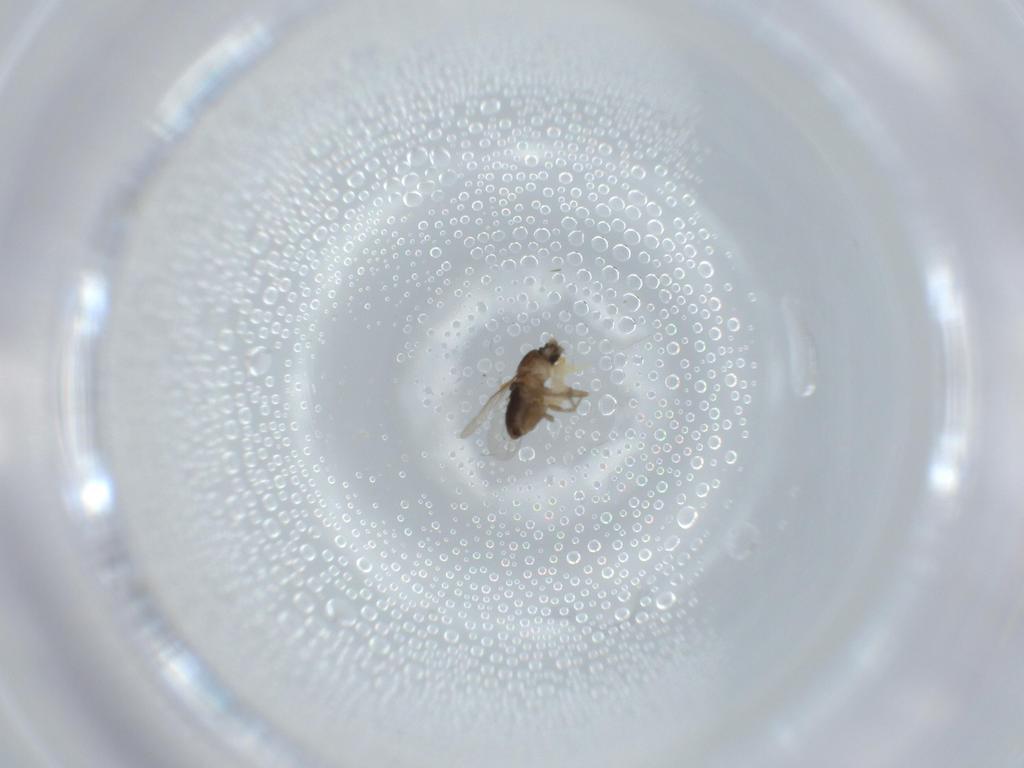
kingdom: Animalia
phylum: Arthropoda
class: Insecta
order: Diptera
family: Phoridae
